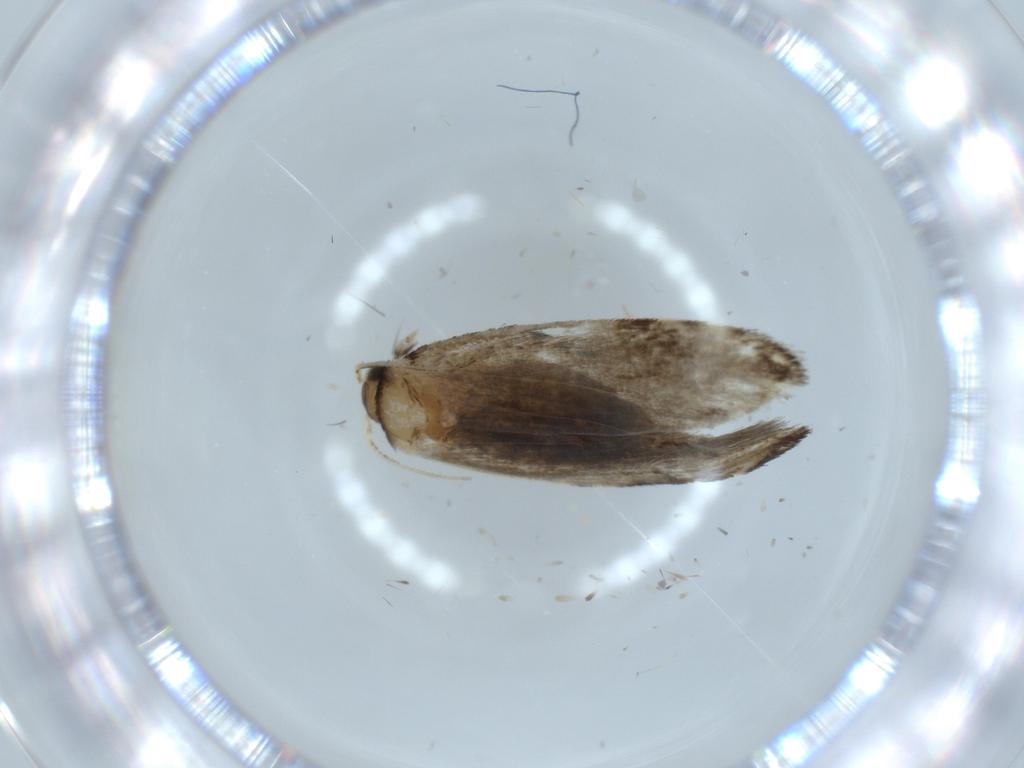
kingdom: Animalia
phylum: Arthropoda
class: Insecta
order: Lepidoptera
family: Tineidae
